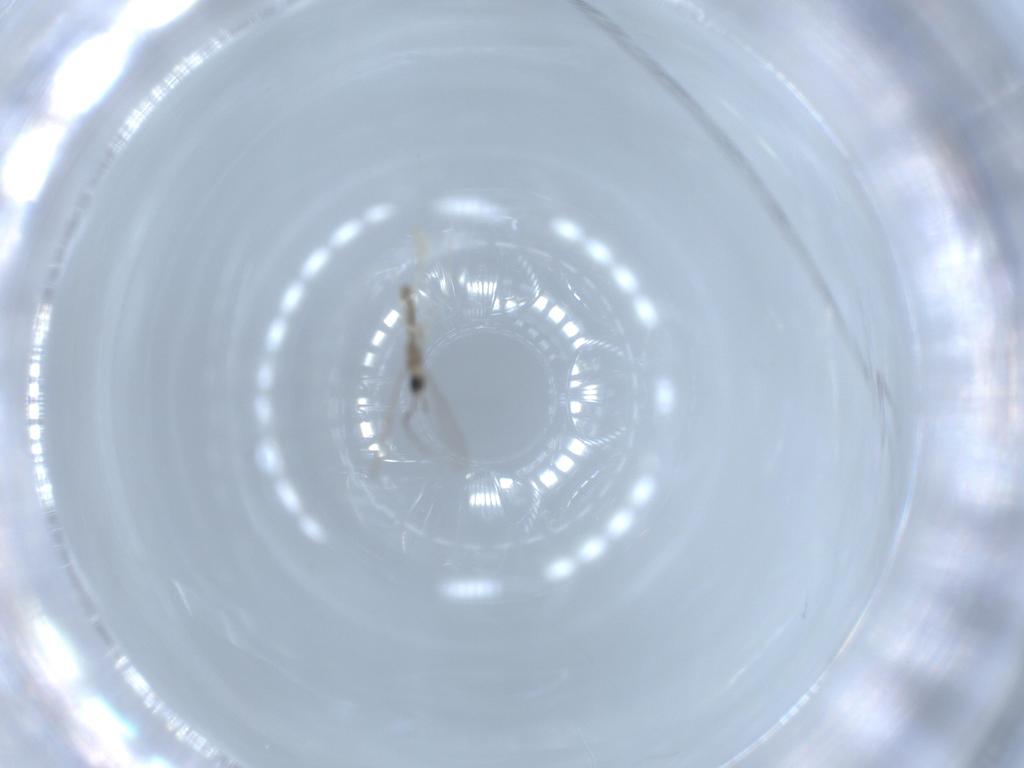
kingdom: Animalia
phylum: Arthropoda
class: Insecta
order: Diptera
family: Cecidomyiidae
